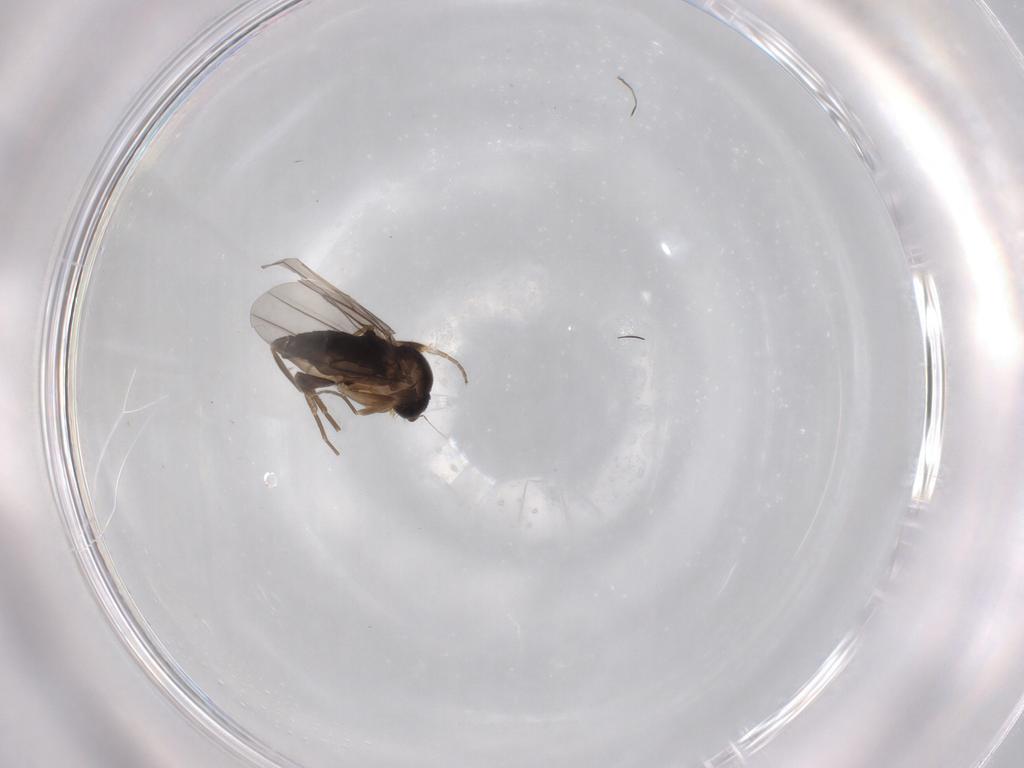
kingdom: Animalia
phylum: Arthropoda
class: Insecta
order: Diptera
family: Phoridae
